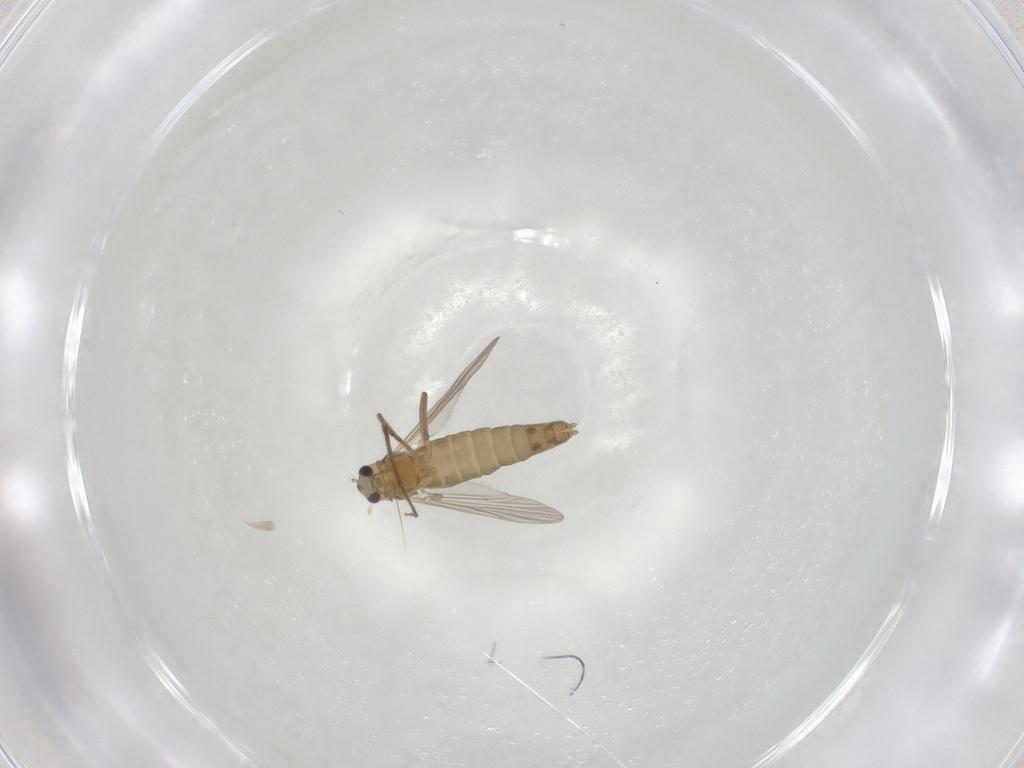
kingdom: Animalia
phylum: Arthropoda
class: Insecta
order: Diptera
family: Chironomidae
